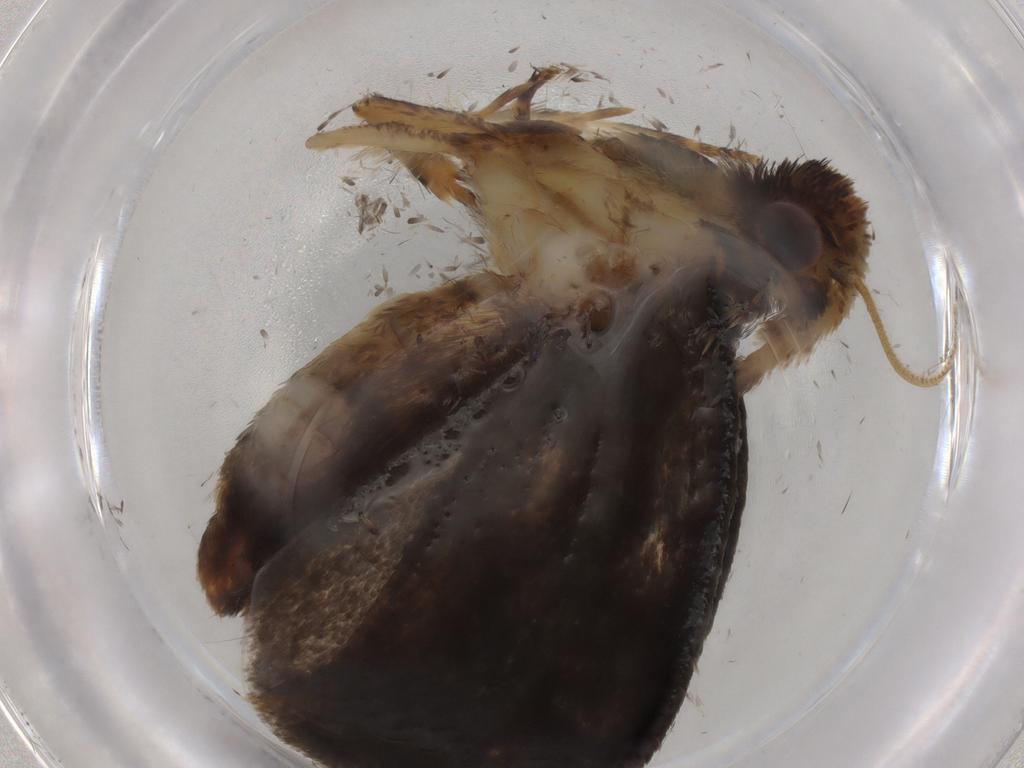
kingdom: Animalia
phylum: Arthropoda
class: Insecta
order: Lepidoptera
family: Tineidae
